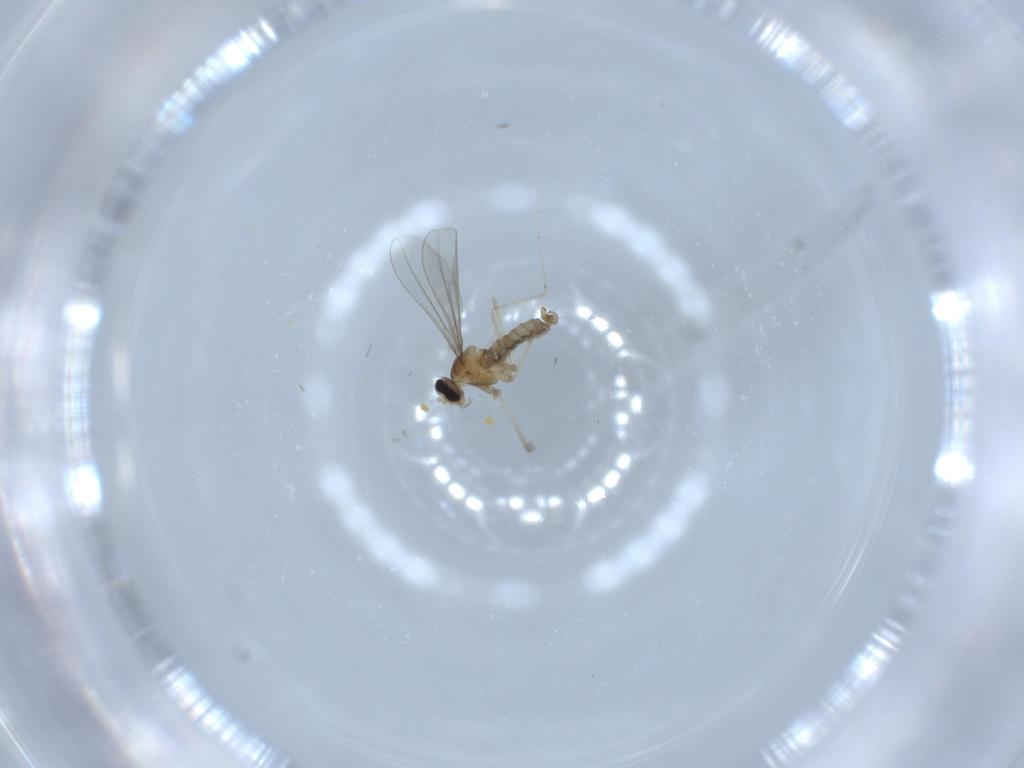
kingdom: Animalia
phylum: Arthropoda
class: Insecta
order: Diptera
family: Cecidomyiidae
